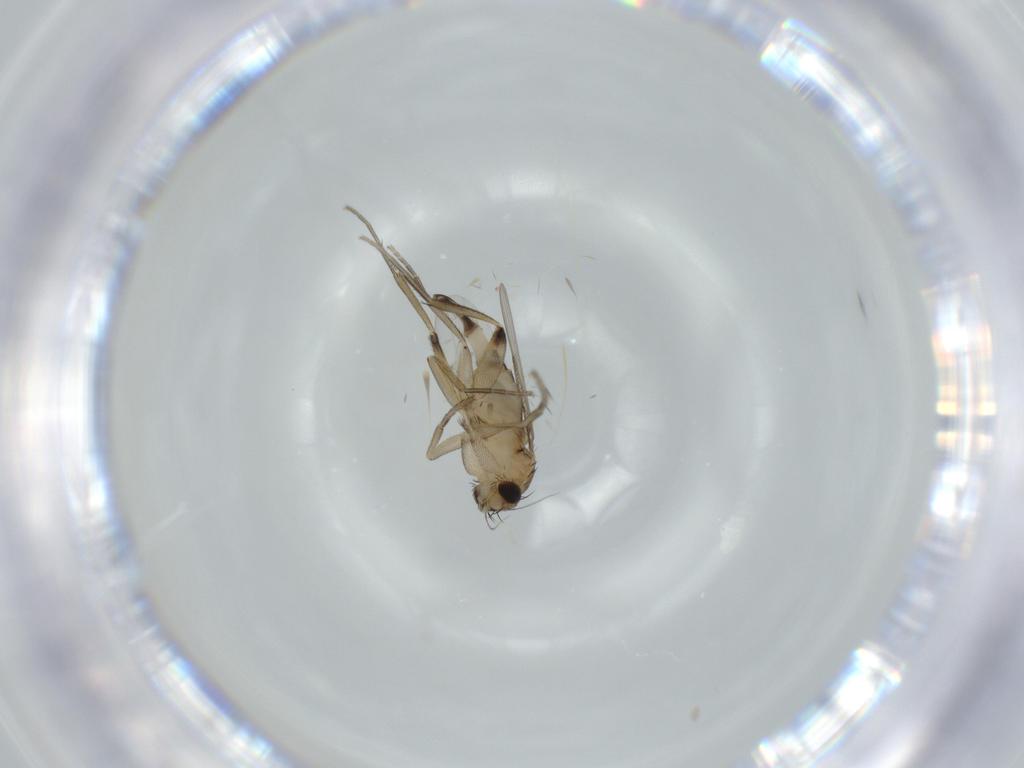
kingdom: Animalia
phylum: Arthropoda
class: Insecta
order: Diptera
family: Phoridae
